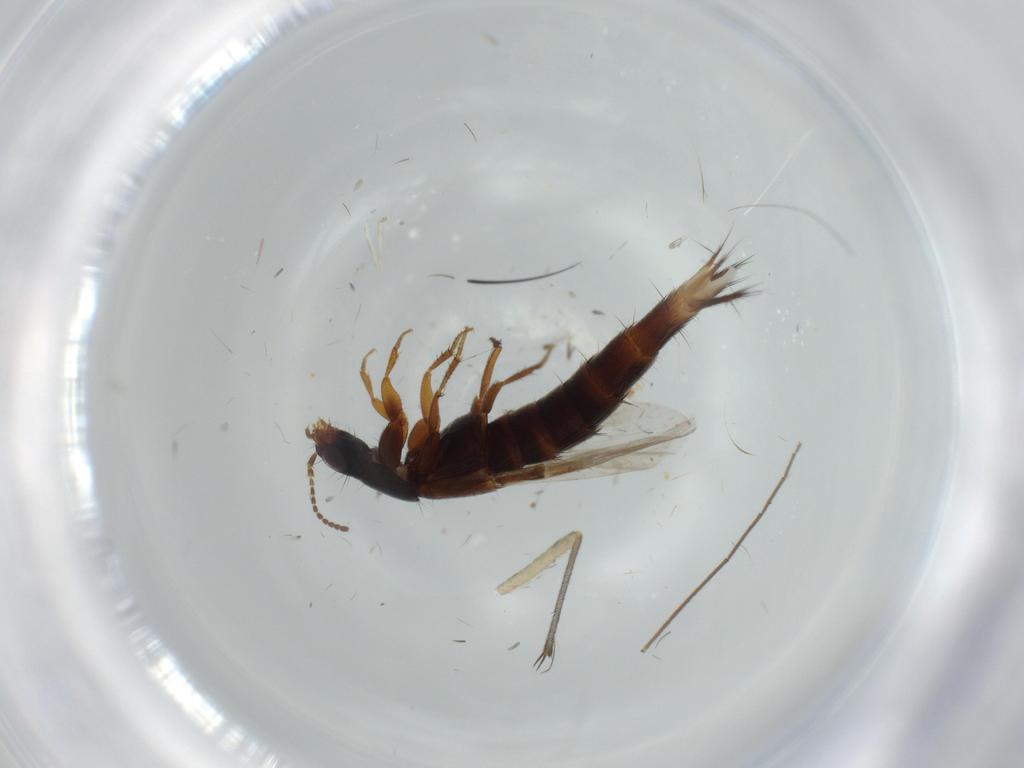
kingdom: Animalia
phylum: Arthropoda
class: Insecta
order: Coleoptera
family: Staphylinidae
